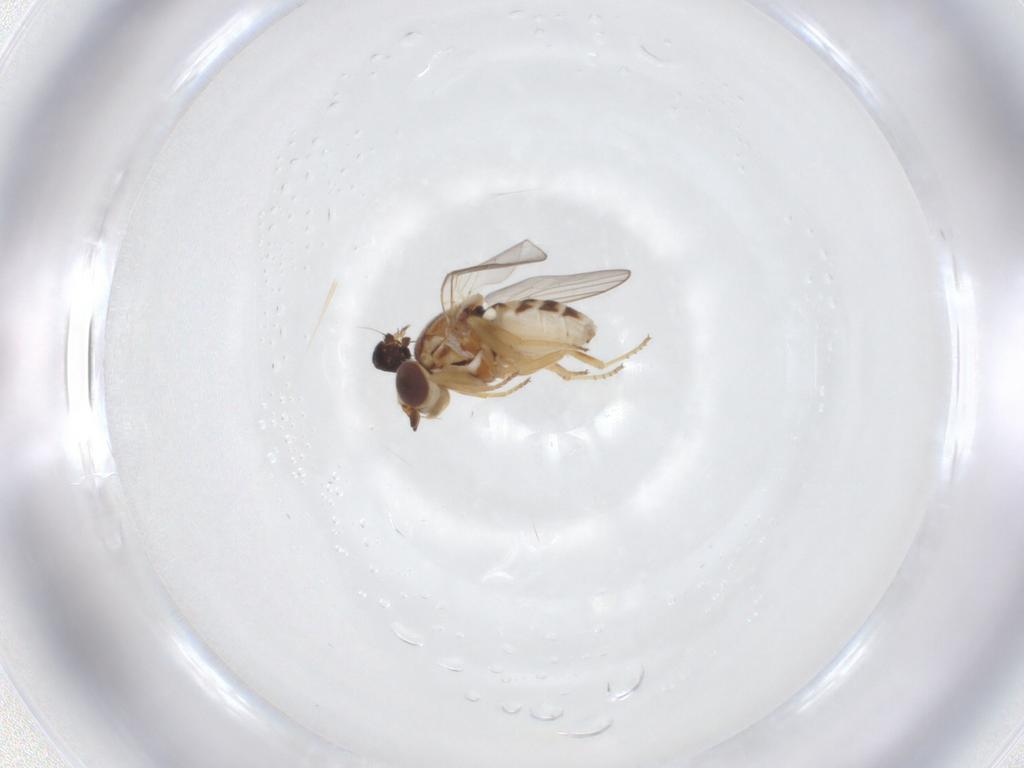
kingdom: Animalia
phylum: Arthropoda
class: Insecta
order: Diptera
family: Chloropidae
